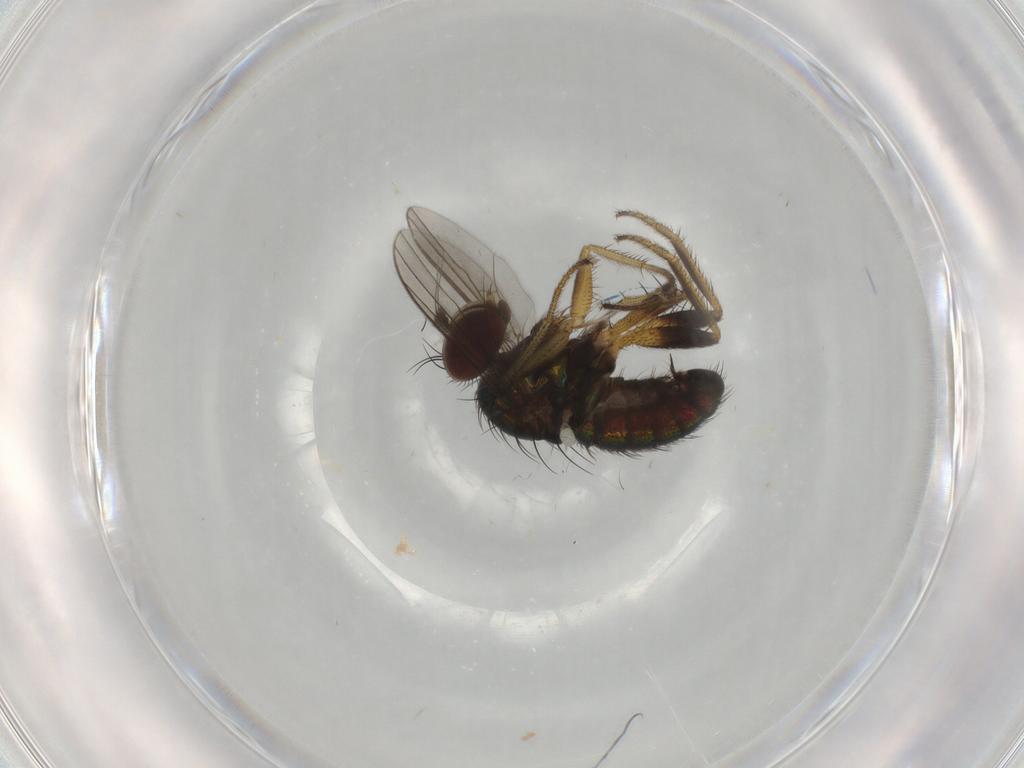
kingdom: Animalia
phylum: Arthropoda
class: Insecta
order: Diptera
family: Dolichopodidae
